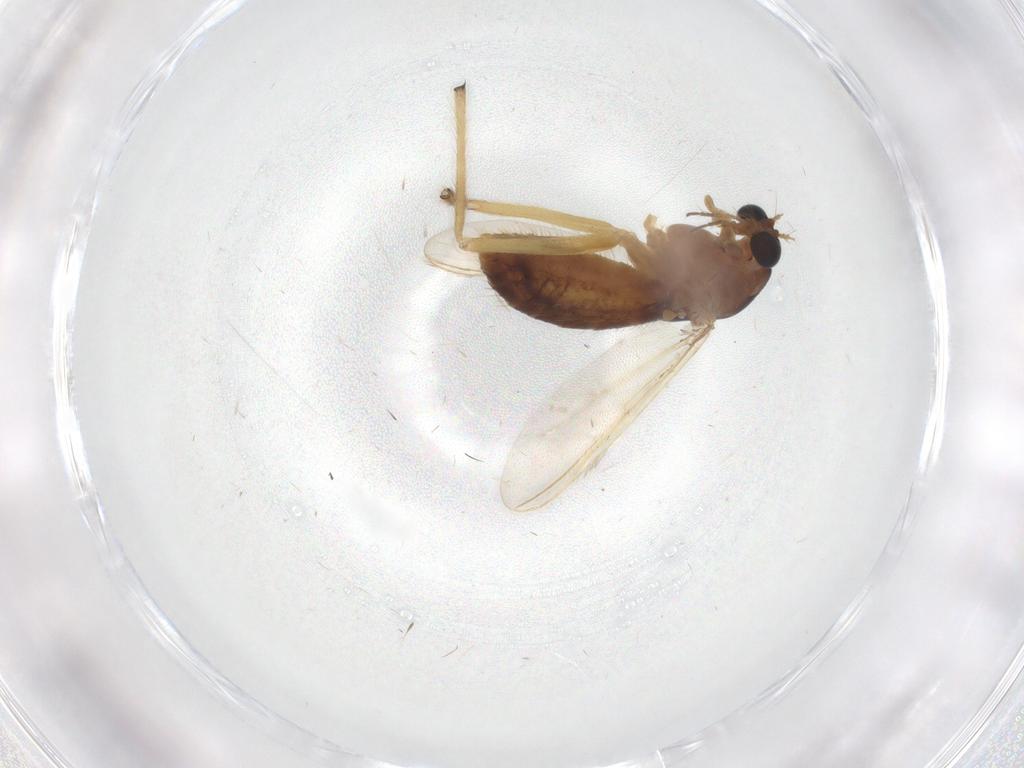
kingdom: Animalia
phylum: Arthropoda
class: Insecta
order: Diptera
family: Chironomidae
